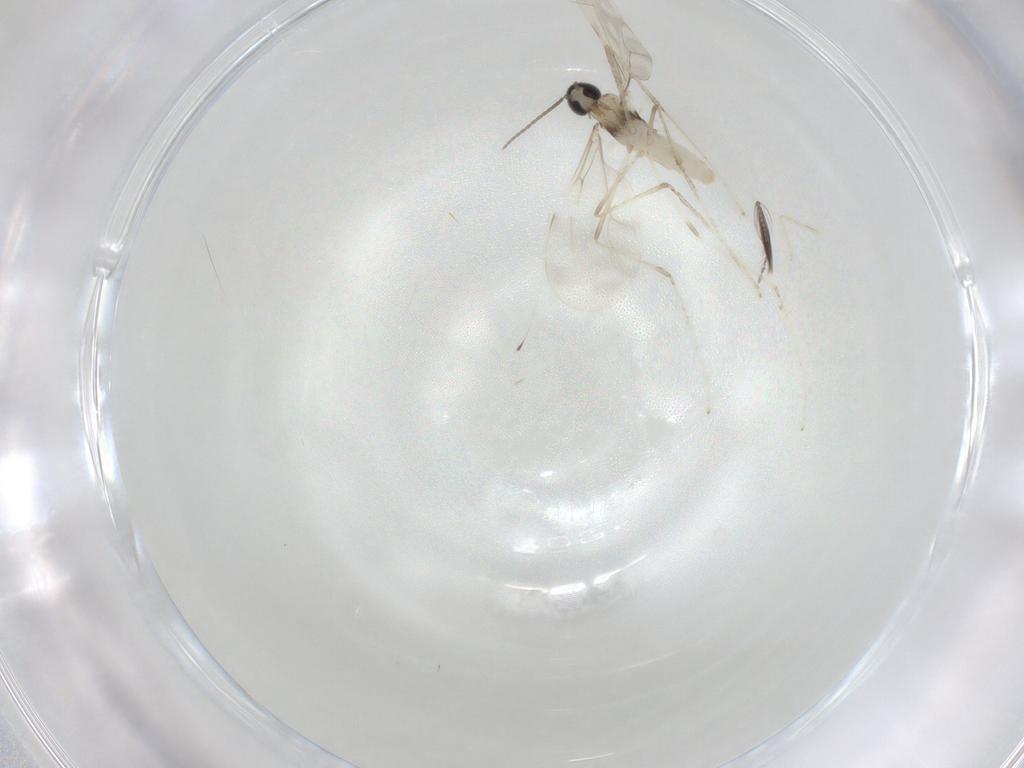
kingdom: Animalia
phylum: Arthropoda
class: Insecta
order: Diptera
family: Cecidomyiidae
